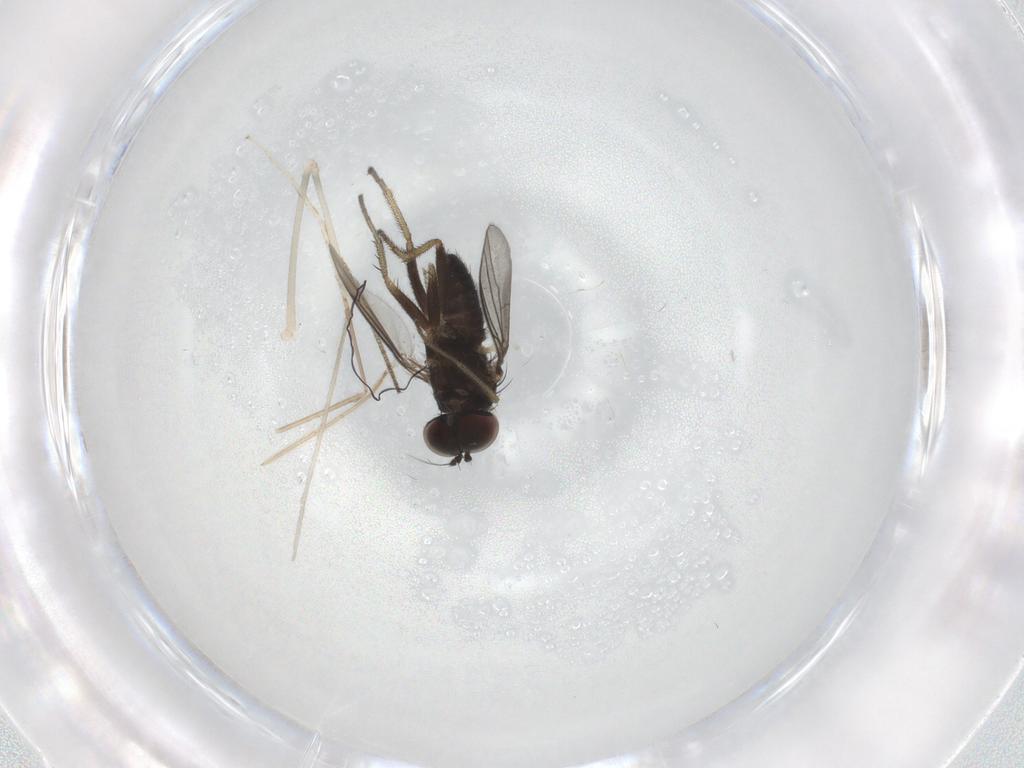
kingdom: Animalia
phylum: Arthropoda
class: Insecta
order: Diptera
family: Cecidomyiidae
